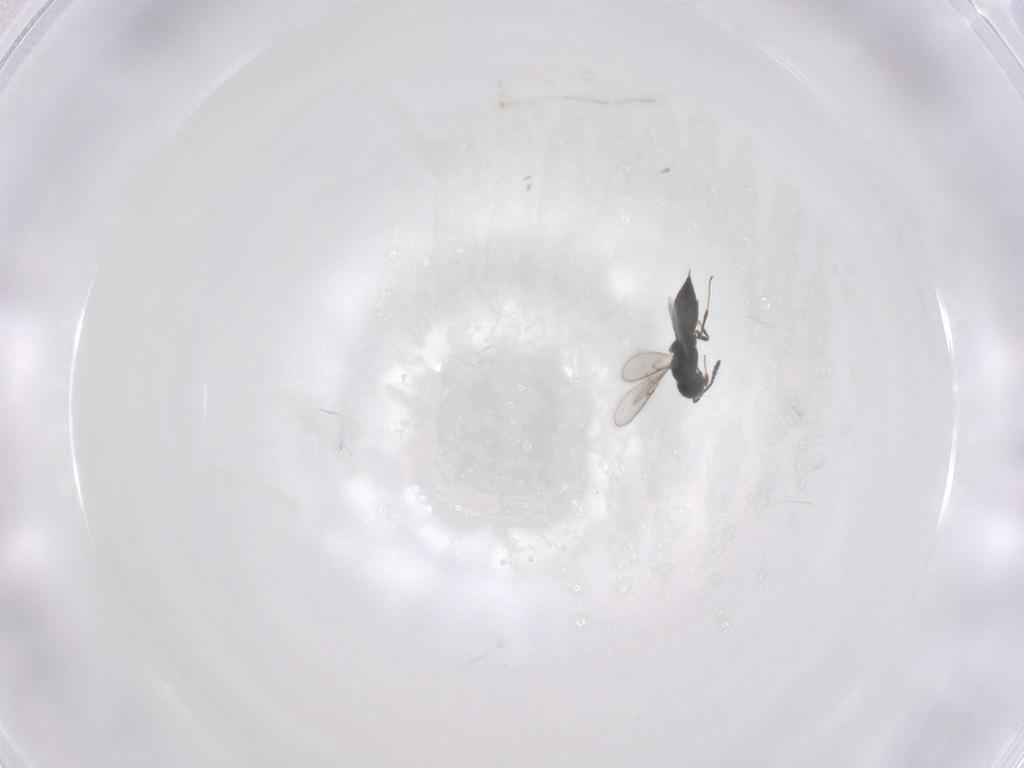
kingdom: Animalia
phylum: Arthropoda
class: Insecta
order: Hymenoptera
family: Scelionidae
